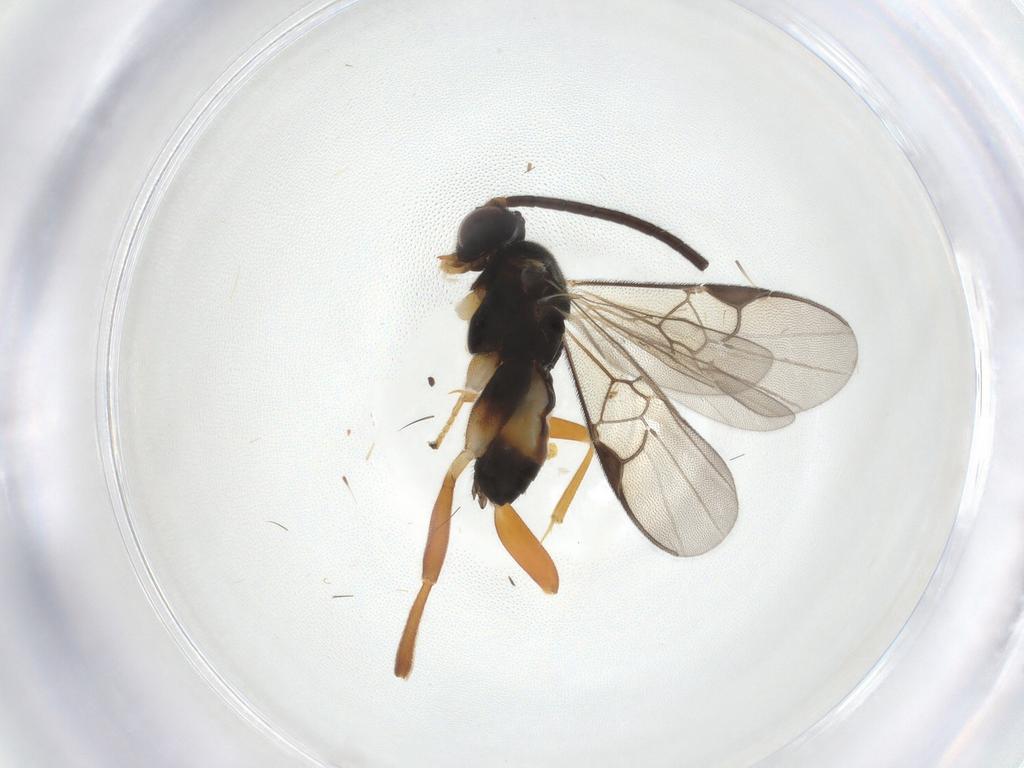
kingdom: Animalia
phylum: Arthropoda
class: Insecta
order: Hymenoptera
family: Braconidae
